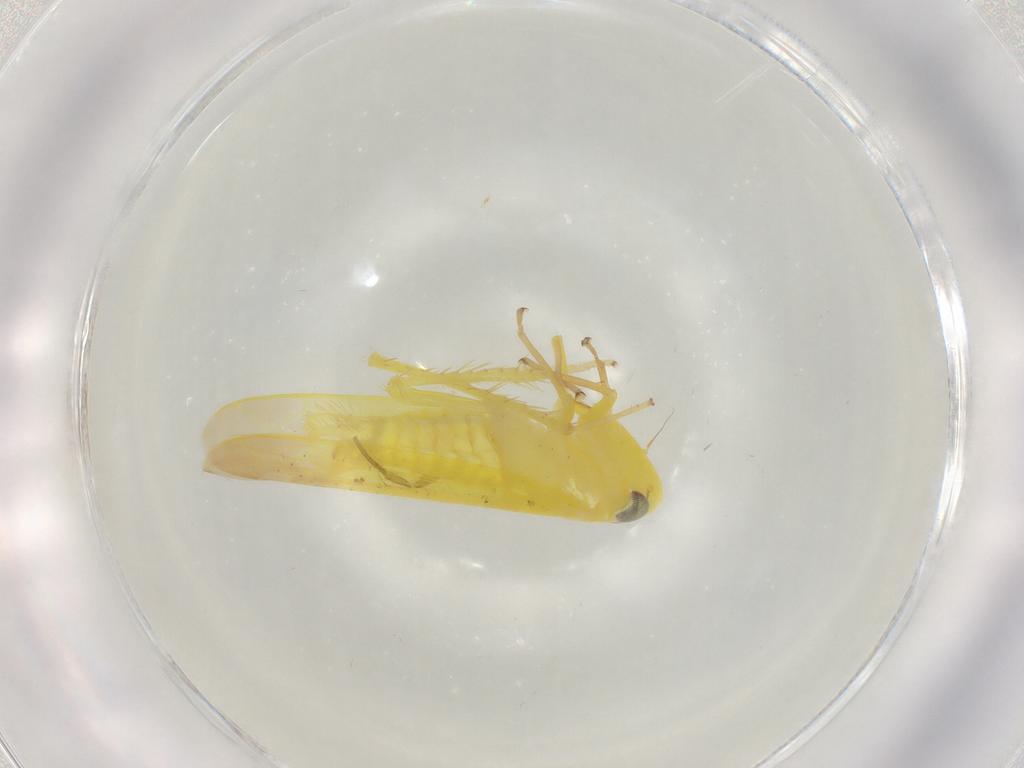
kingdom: Animalia
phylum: Arthropoda
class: Insecta
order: Hemiptera
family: Cicadellidae
